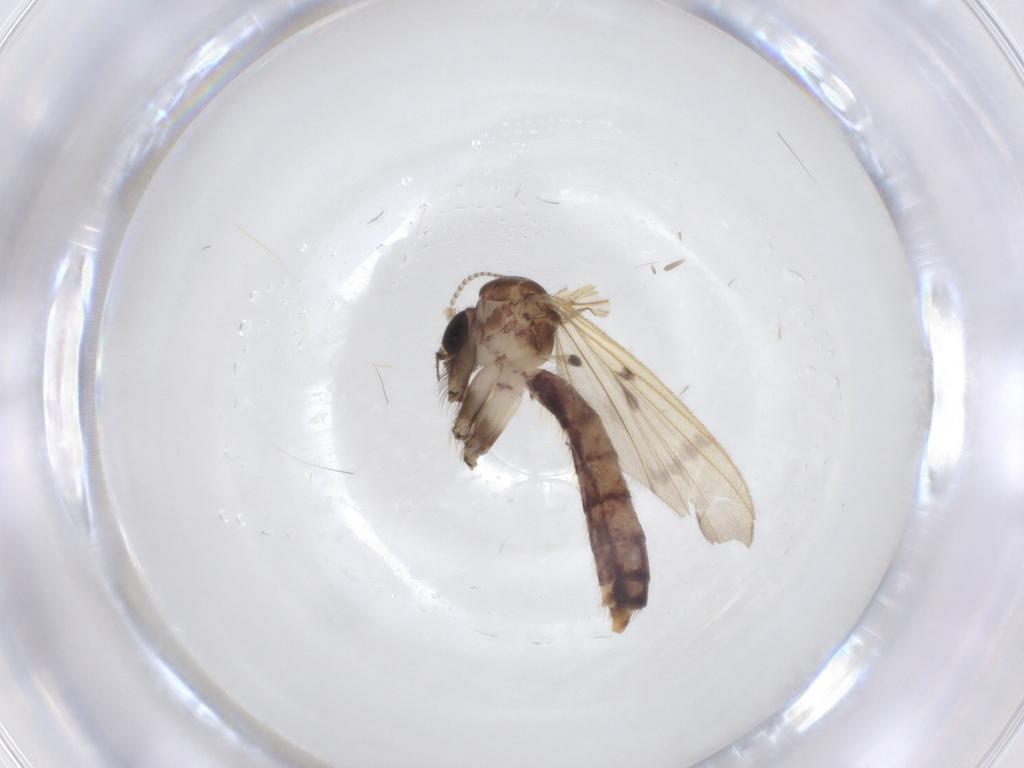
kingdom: Animalia
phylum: Arthropoda
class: Insecta
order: Diptera
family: Mycetophilidae
